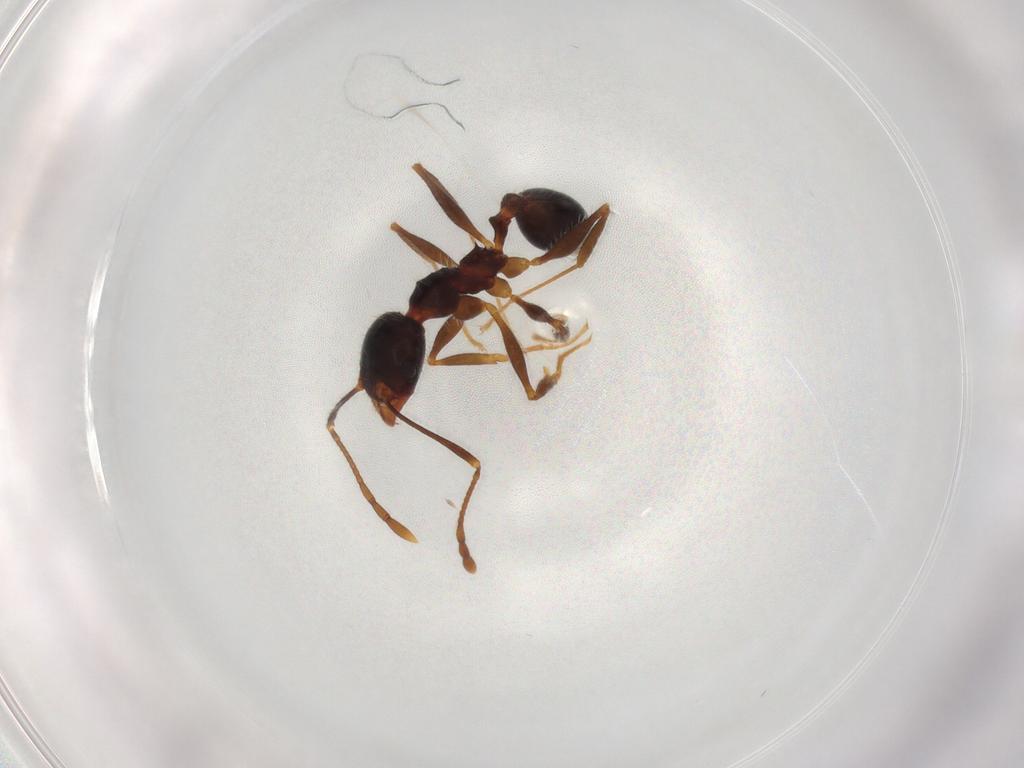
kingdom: Animalia
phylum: Arthropoda
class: Insecta
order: Hymenoptera
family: Formicidae
